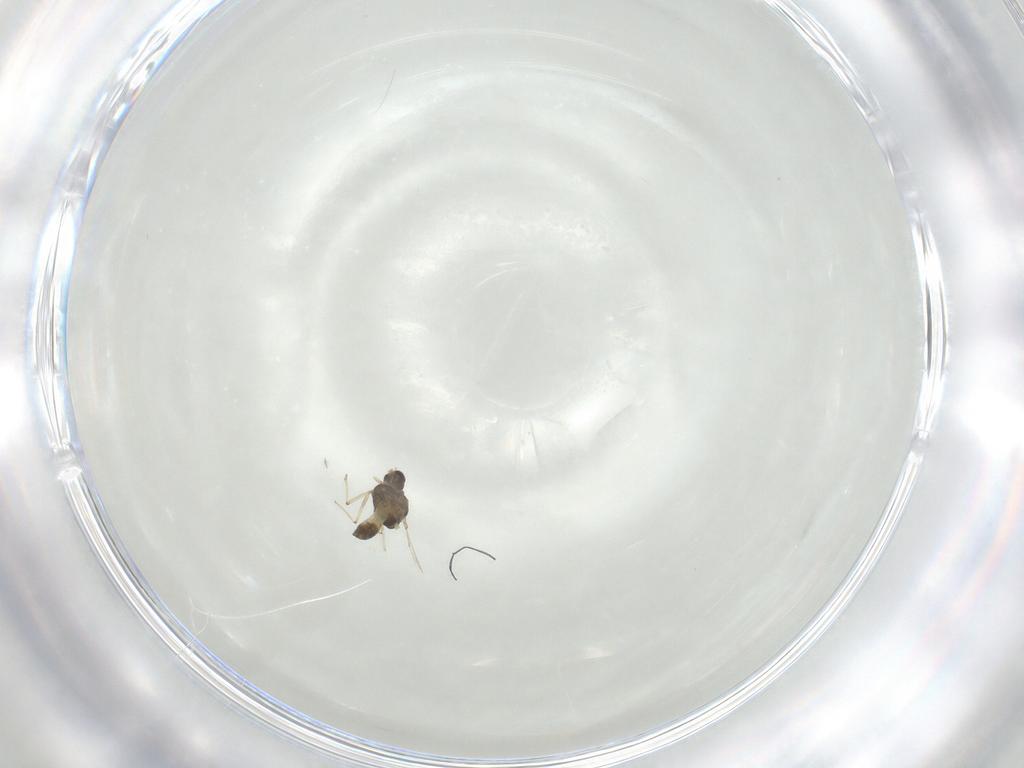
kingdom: Animalia
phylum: Arthropoda
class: Insecta
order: Diptera
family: Chironomidae
